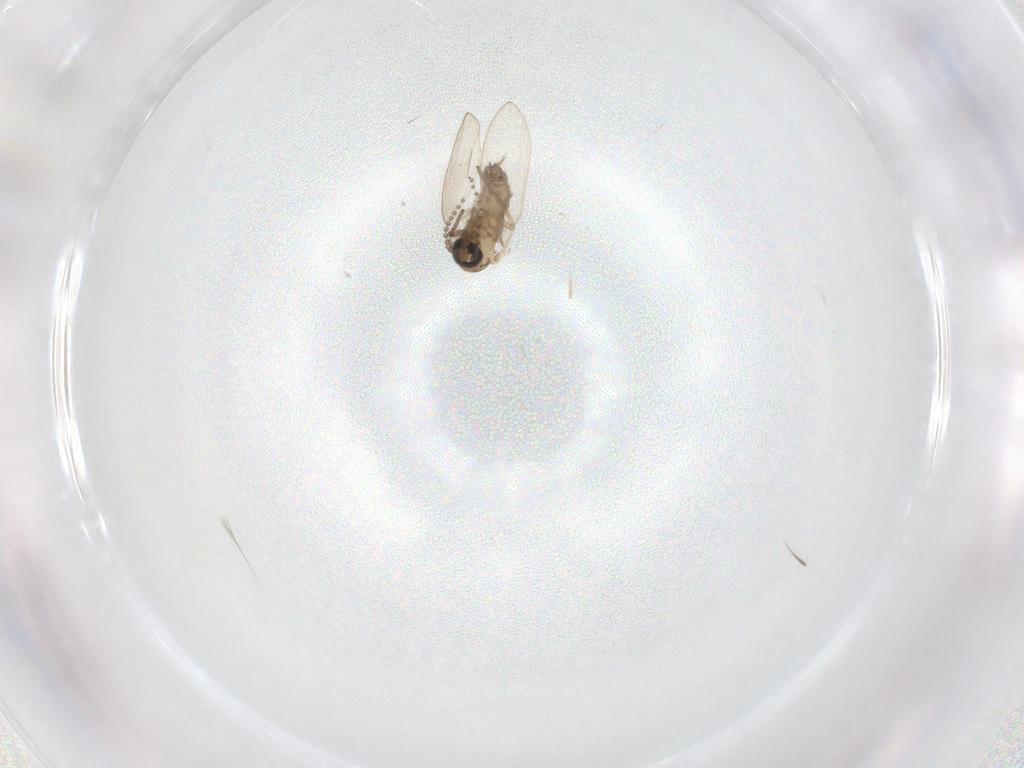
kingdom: Animalia
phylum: Arthropoda
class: Insecta
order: Diptera
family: Psychodidae
